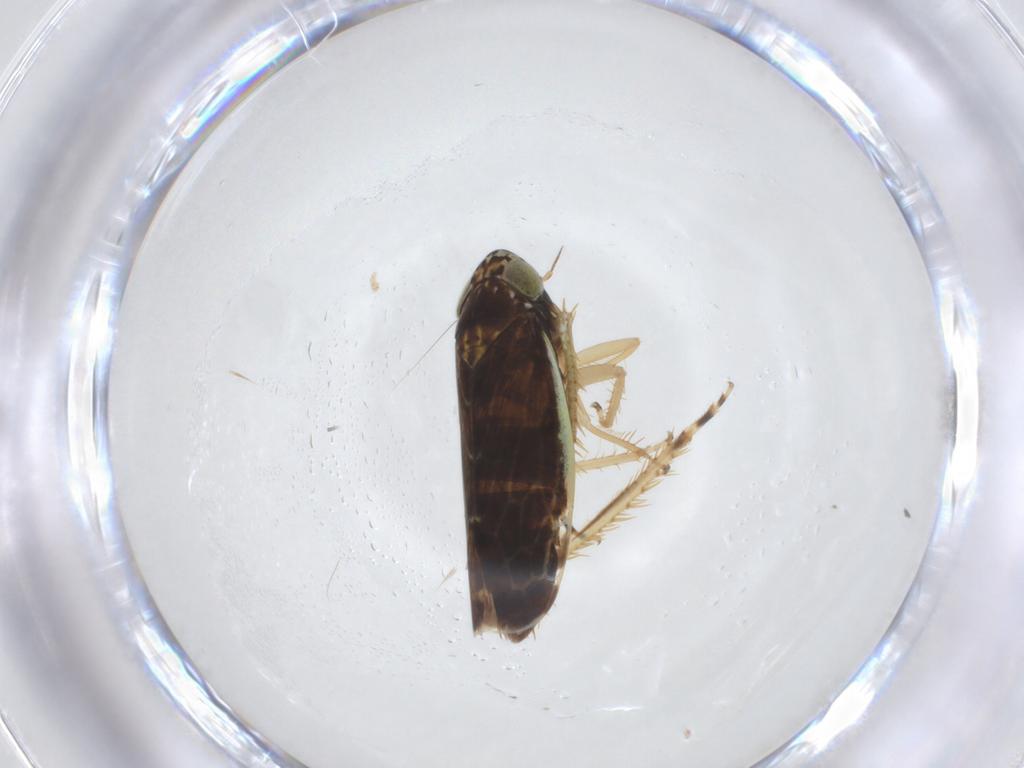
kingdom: Animalia
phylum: Arthropoda
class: Insecta
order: Hemiptera
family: Cicadellidae
